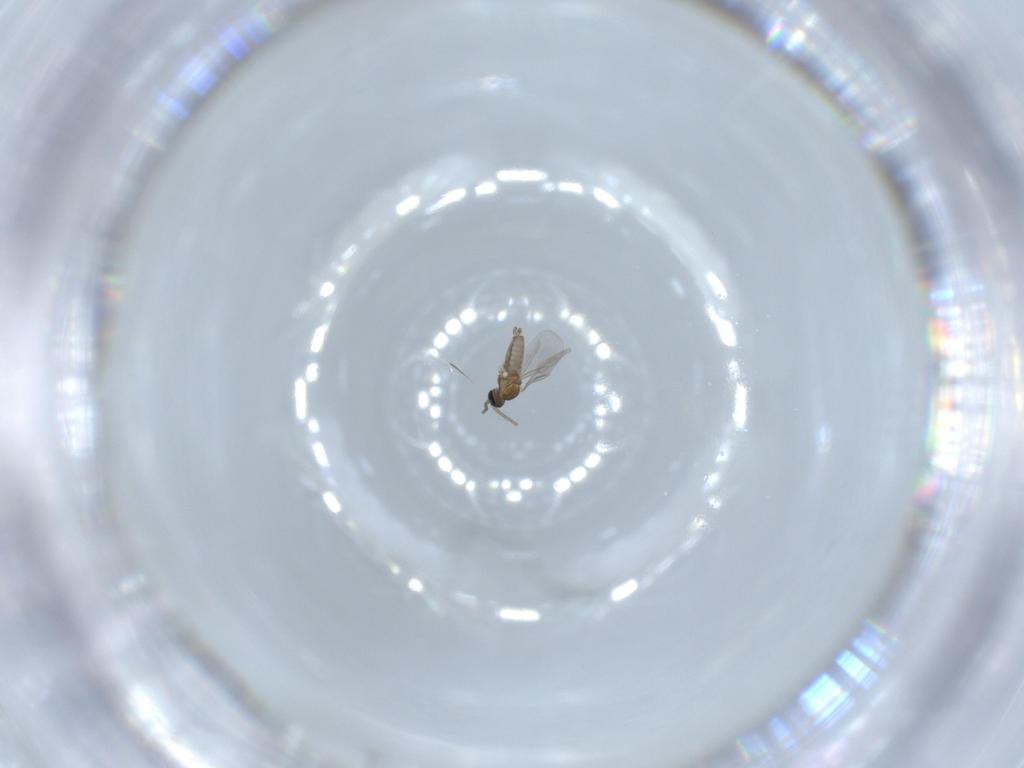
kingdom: Animalia
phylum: Arthropoda
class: Insecta
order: Diptera
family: Cecidomyiidae
